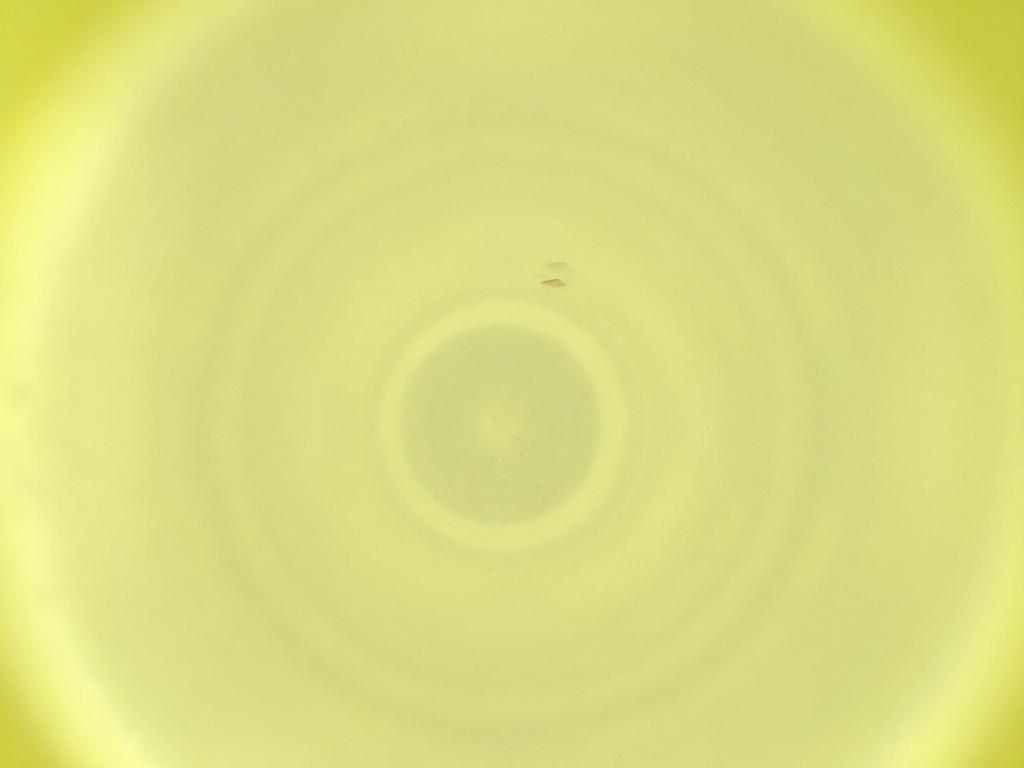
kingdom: Animalia
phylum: Arthropoda
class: Insecta
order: Diptera
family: Cecidomyiidae
